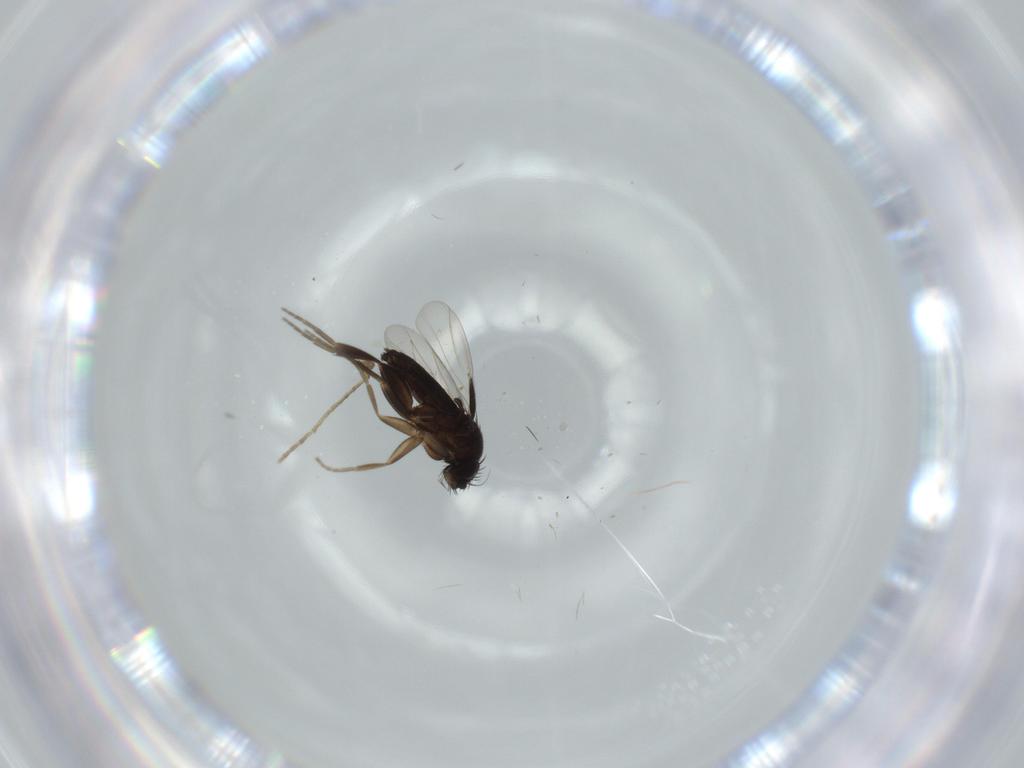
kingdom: Animalia
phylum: Arthropoda
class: Insecta
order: Diptera
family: Psychodidae
